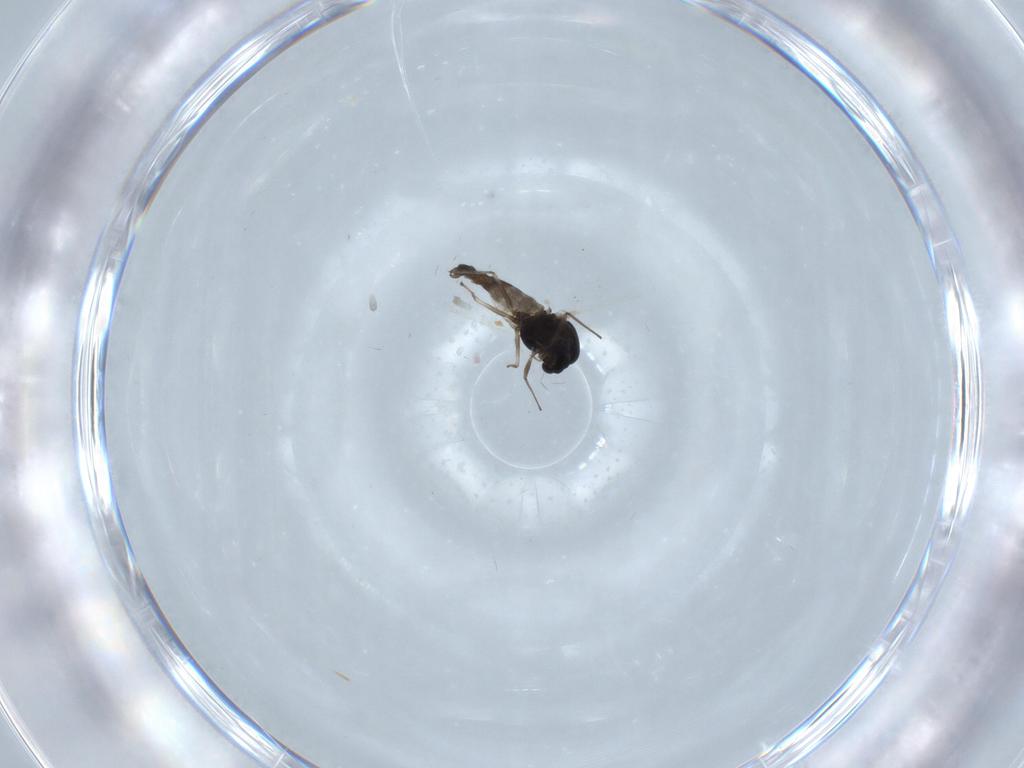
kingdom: Animalia
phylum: Arthropoda
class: Insecta
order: Diptera
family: Chironomidae
